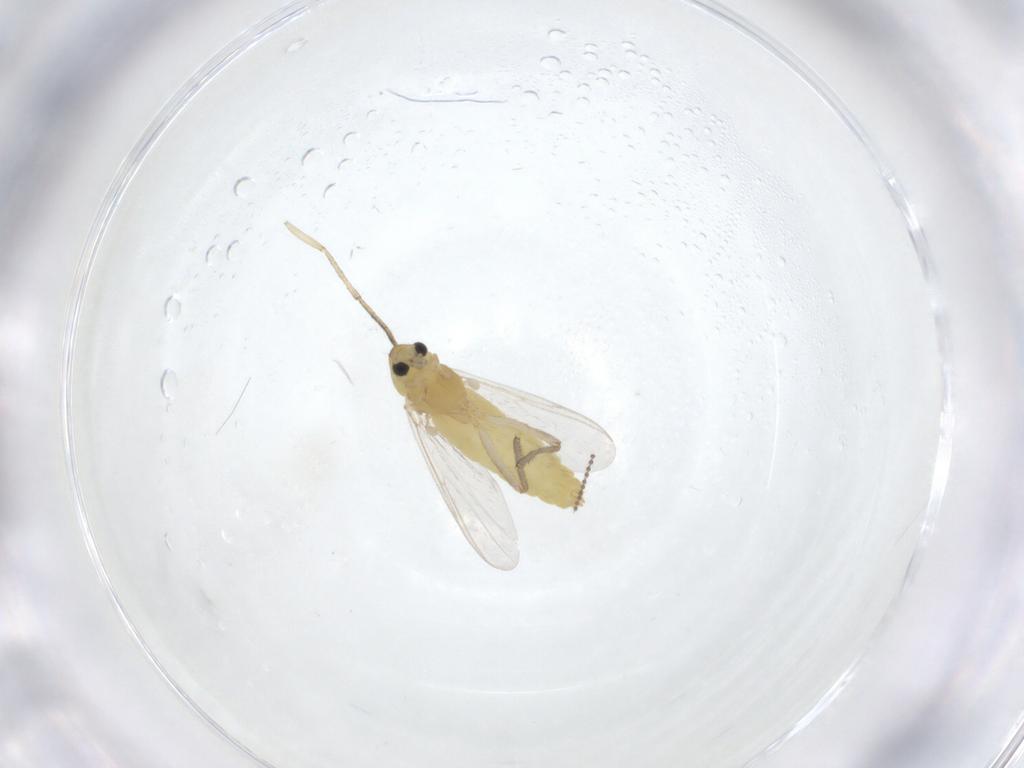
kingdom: Animalia
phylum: Arthropoda
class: Insecta
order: Diptera
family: Chironomidae
